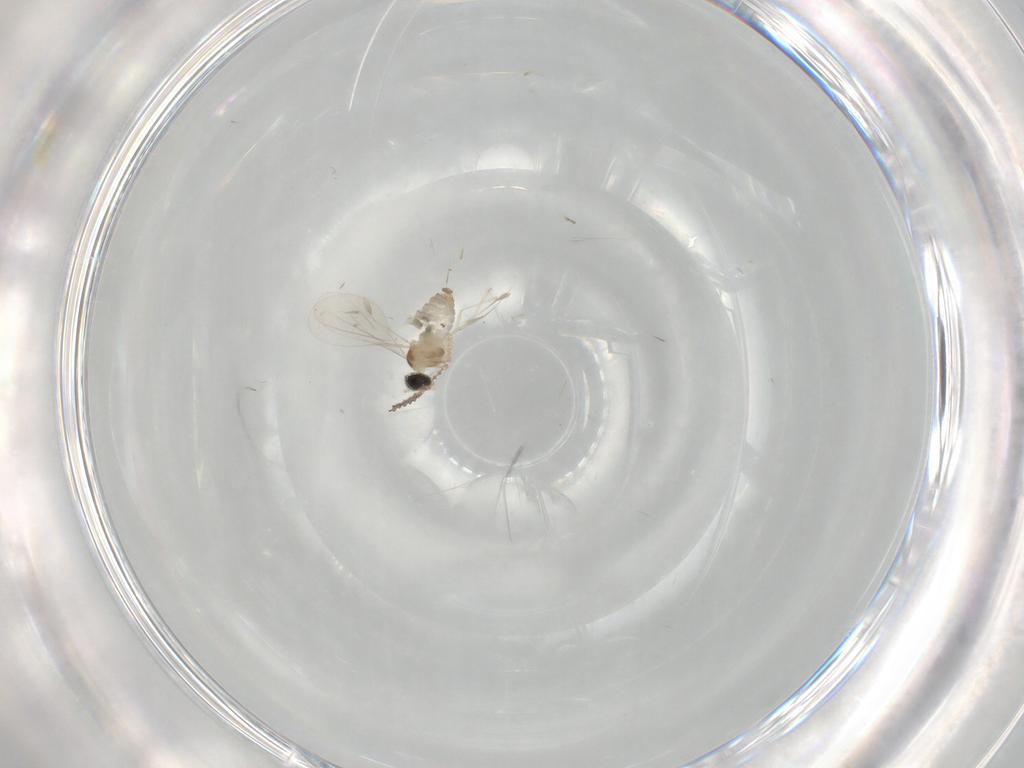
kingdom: Animalia
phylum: Arthropoda
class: Insecta
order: Diptera
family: Cecidomyiidae
